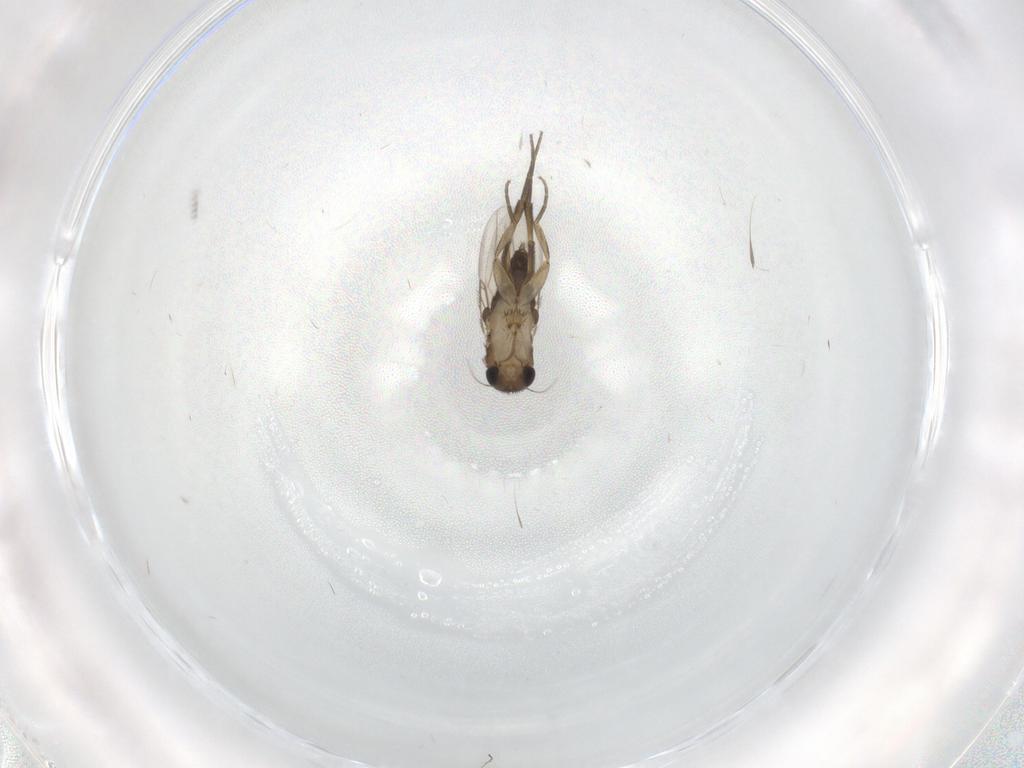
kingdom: Animalia
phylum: Arthropoda
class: Insecta
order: Diptera
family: Phoridae
